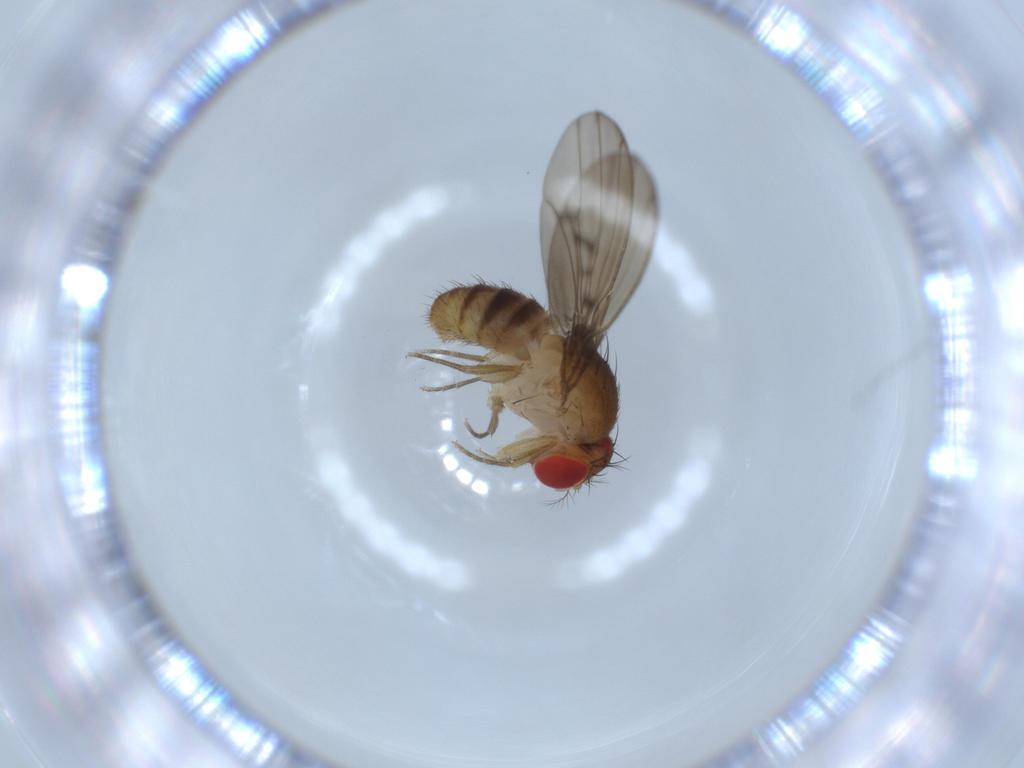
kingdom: Animalia
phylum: Arthropoda
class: Insecta
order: Diptera
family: Drosophilidae
